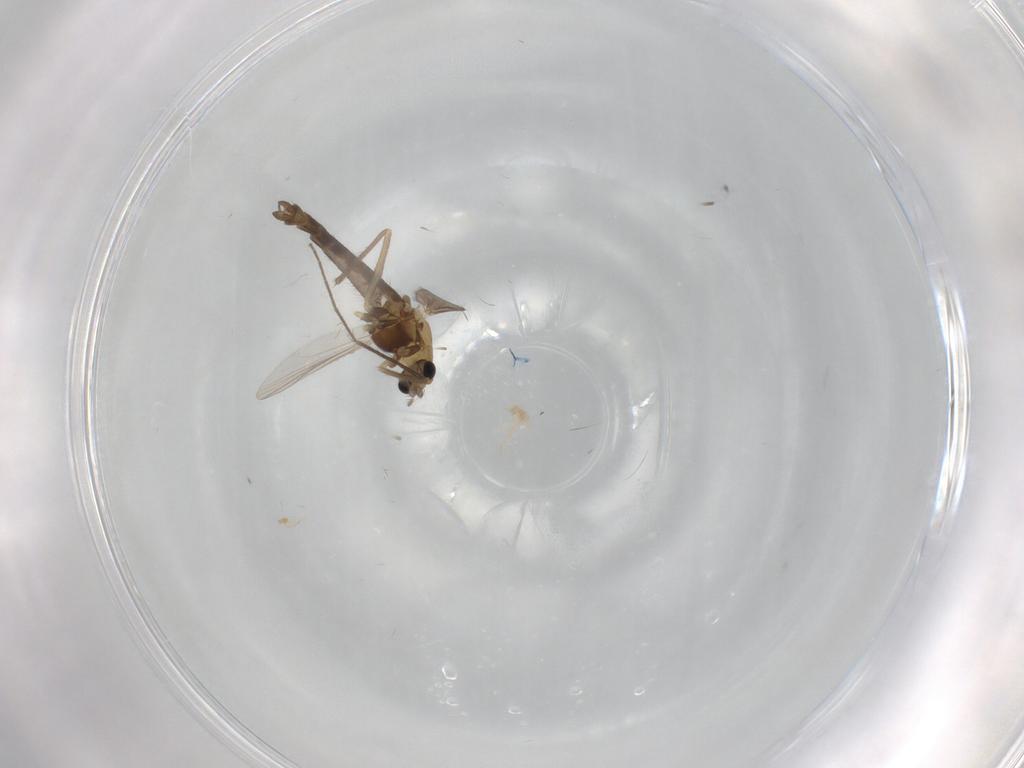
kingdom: Animalia
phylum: Arthropoda
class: Insecta
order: Diptera
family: Chironomidae
